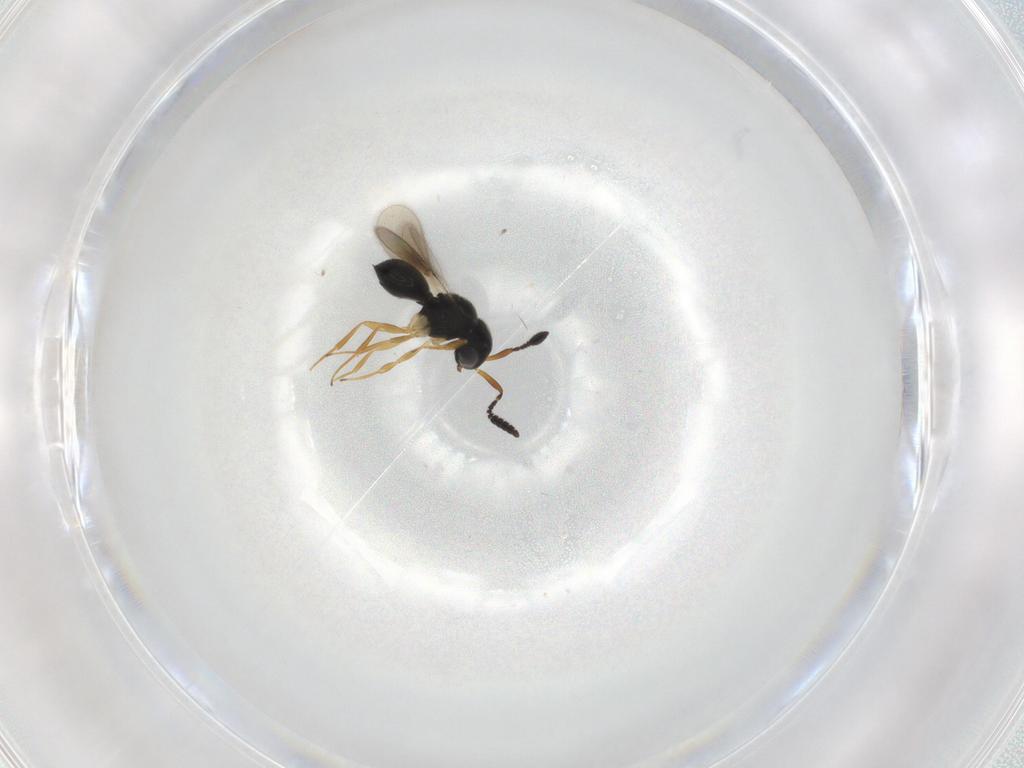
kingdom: Animalia
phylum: Arthropoda
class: Insecta
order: Hymenoptera
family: Scelionidae
